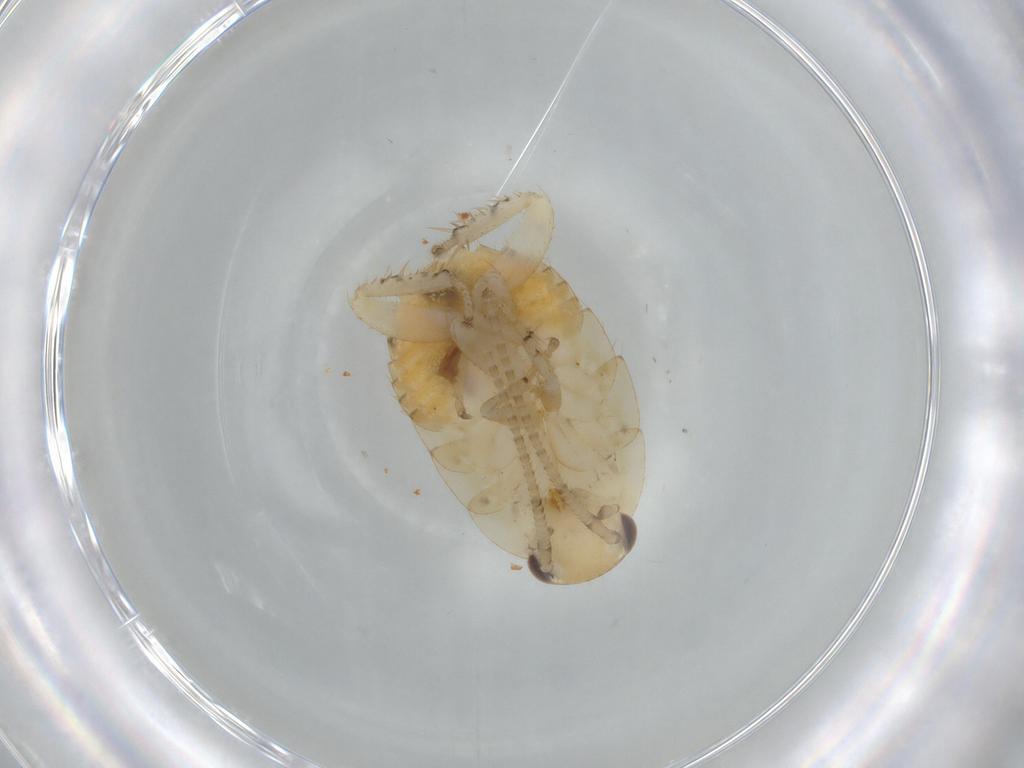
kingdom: Animalia
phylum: Arthropoda
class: Insecta
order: Blattodea
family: Ectobiidae
